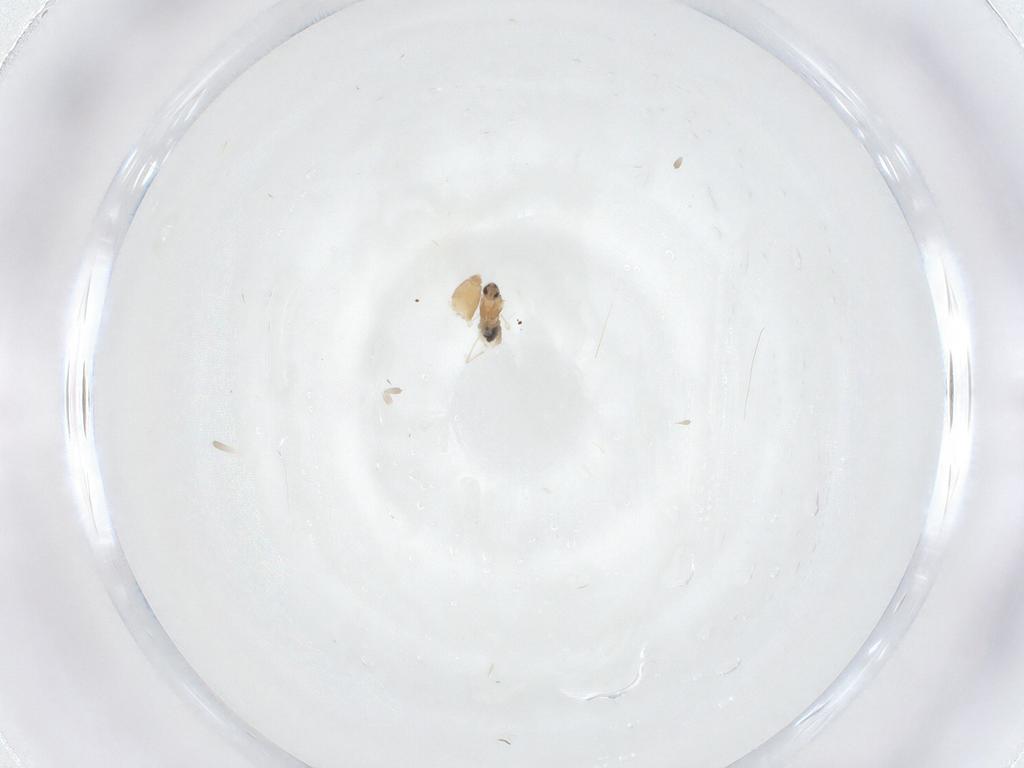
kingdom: Animalia
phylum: Arthropoda
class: Insecta
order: Diptera
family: Cecidomyiidae
